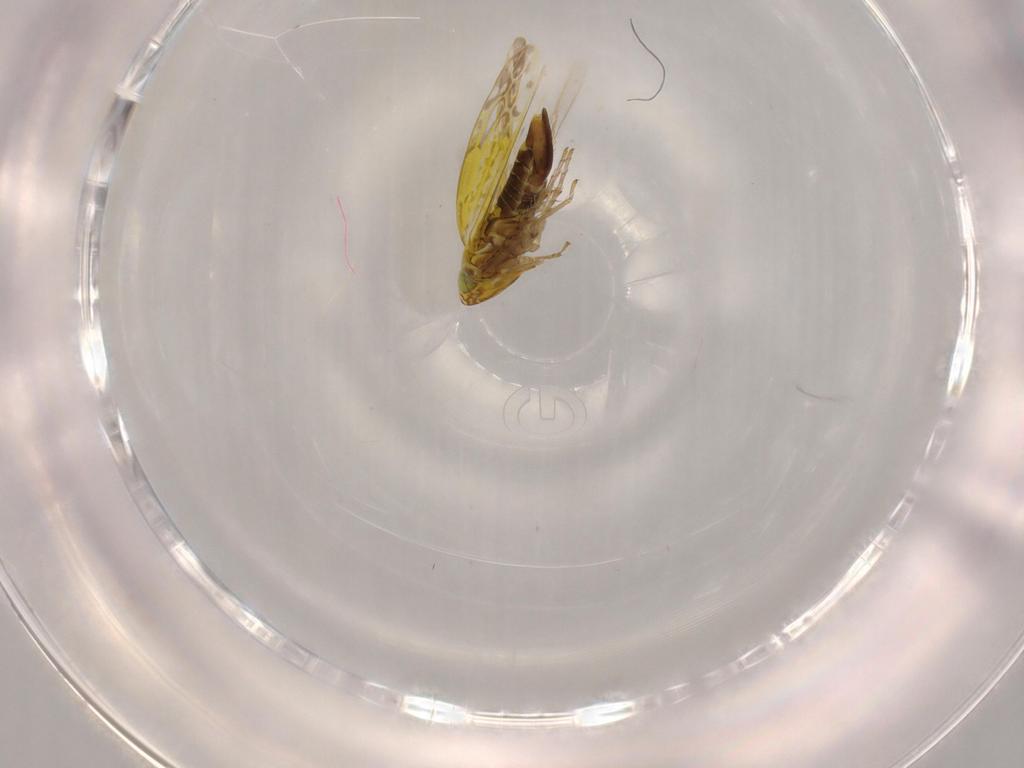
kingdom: Animalia
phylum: Arthropoda
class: Insecta
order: Hemiptera
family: Cicadellidae
